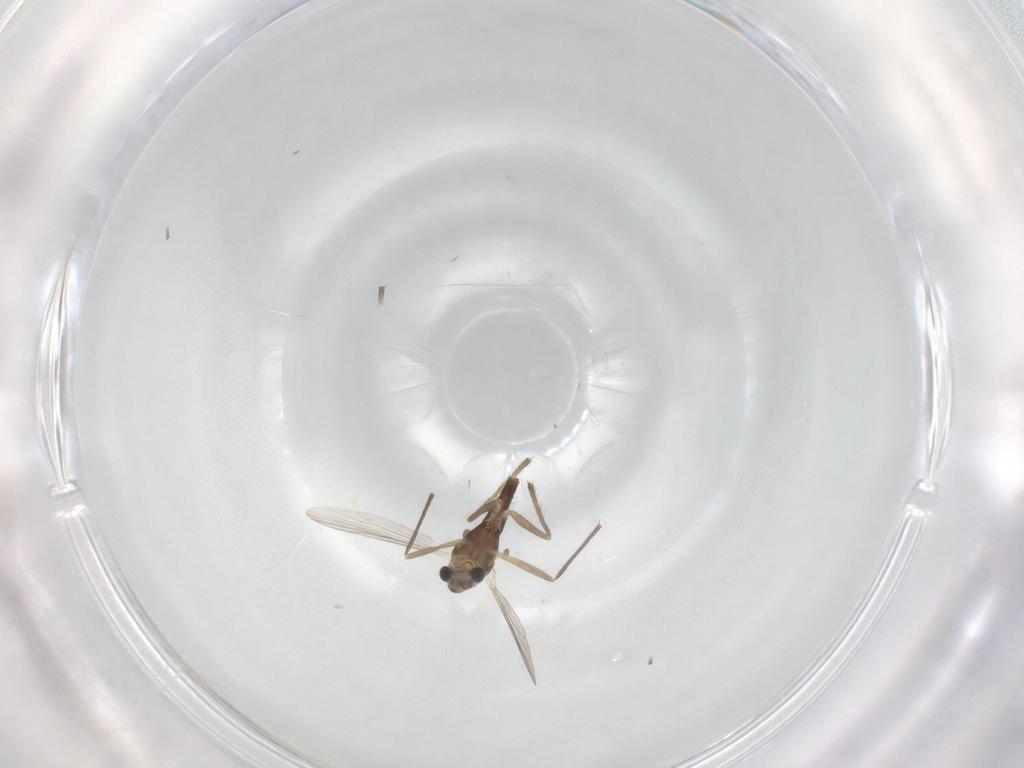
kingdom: Animalia
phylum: Arthropoda
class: Insecta
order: Diptera
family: Chironomidae
